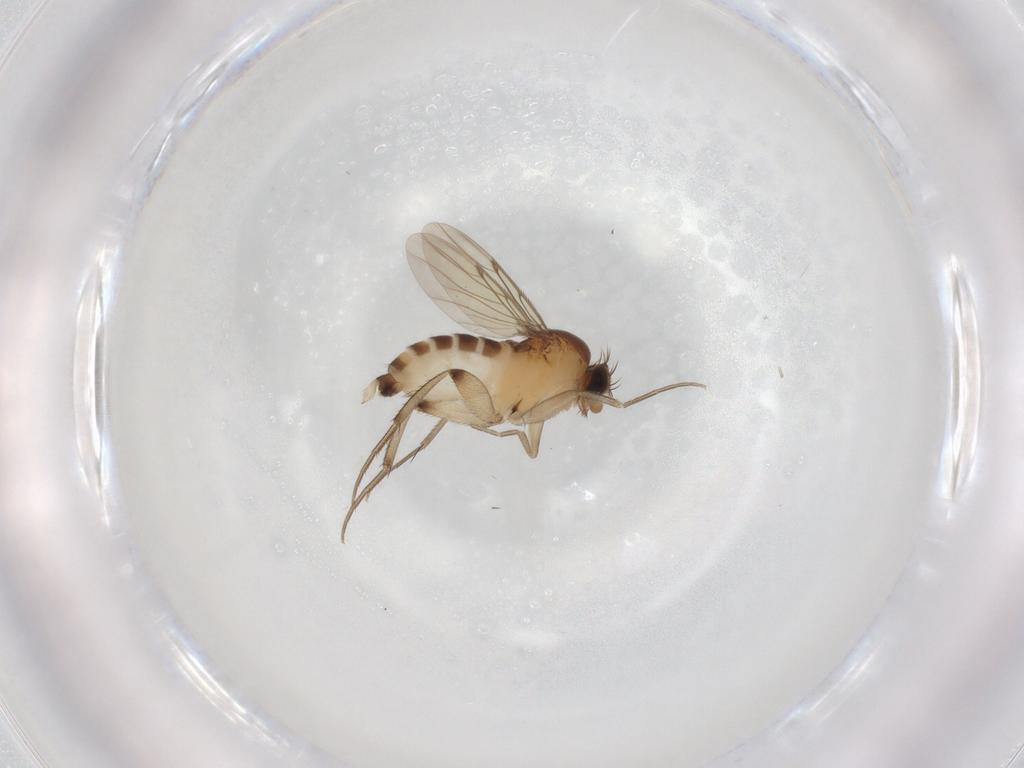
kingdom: Animalia
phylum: Arthropoda
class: Insecta
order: Diptera
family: Phoridae
